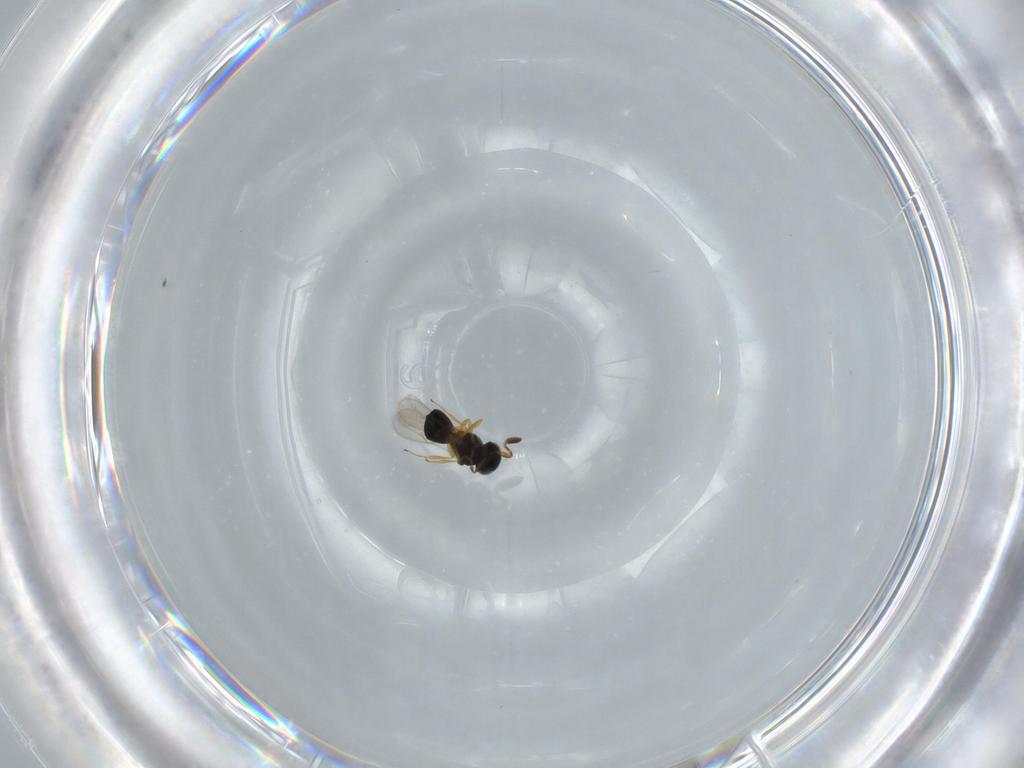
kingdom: Animalia
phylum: Arthropoda
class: Insecta
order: Hymenoptera
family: Scelionidae
